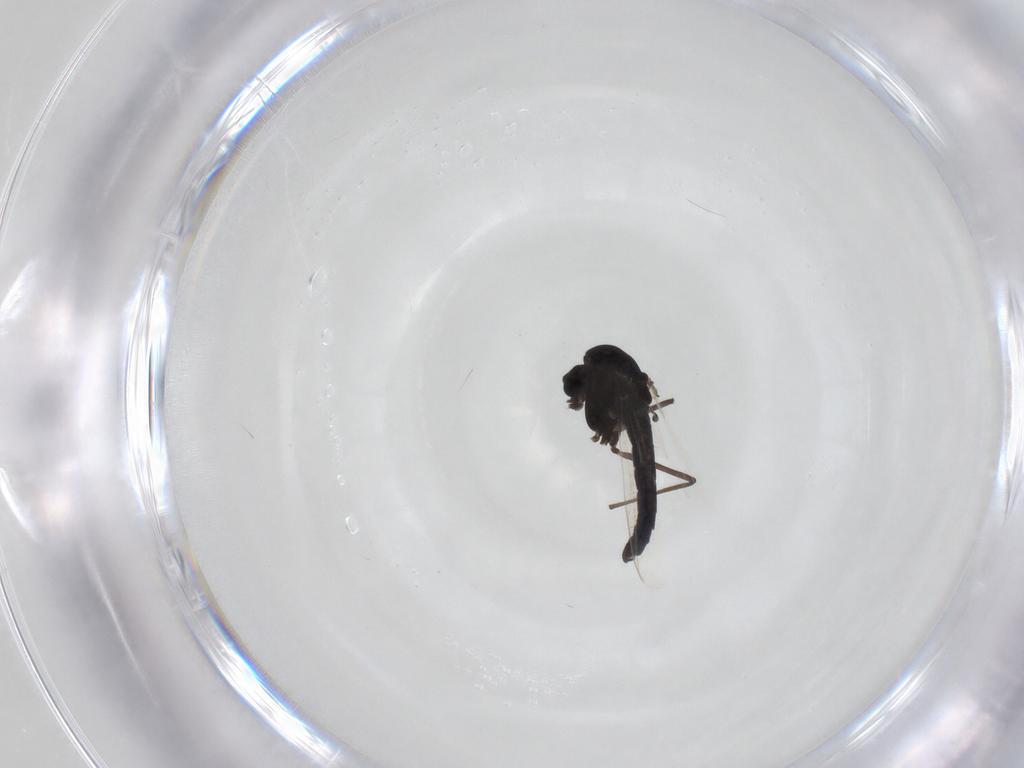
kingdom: Animalia
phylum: Arthropoda
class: Insecta
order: Diptera
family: Chironomidae
